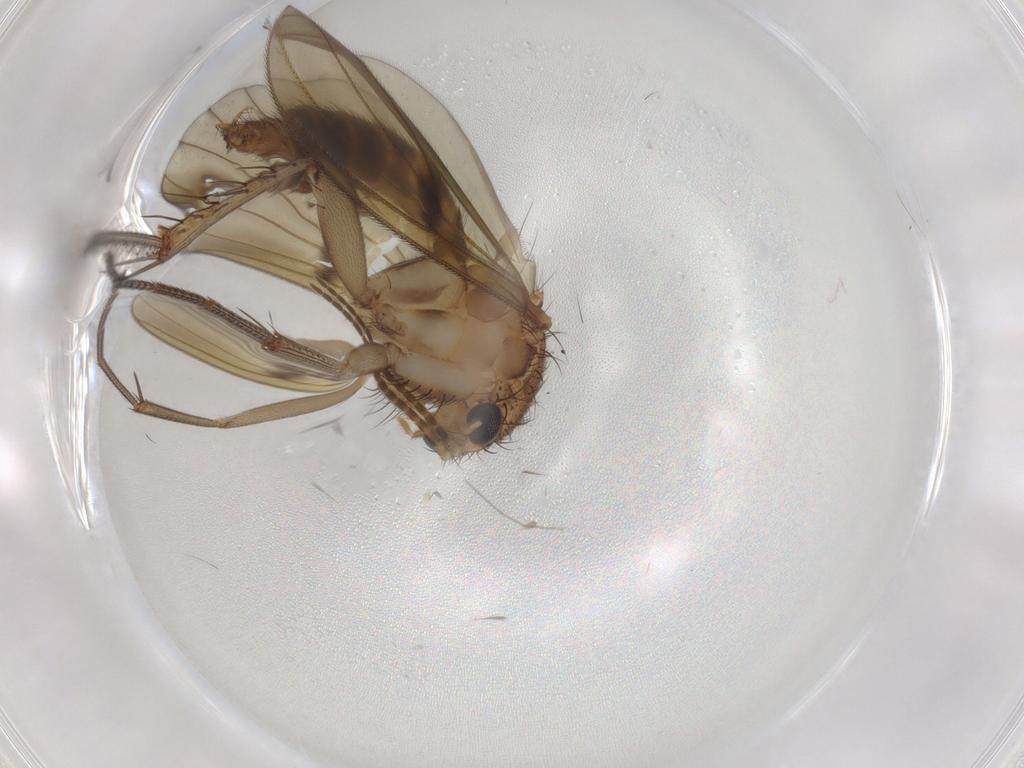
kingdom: Animalia
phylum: Arthropoda
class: Insecta
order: Diptera
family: Mycetophilidae
